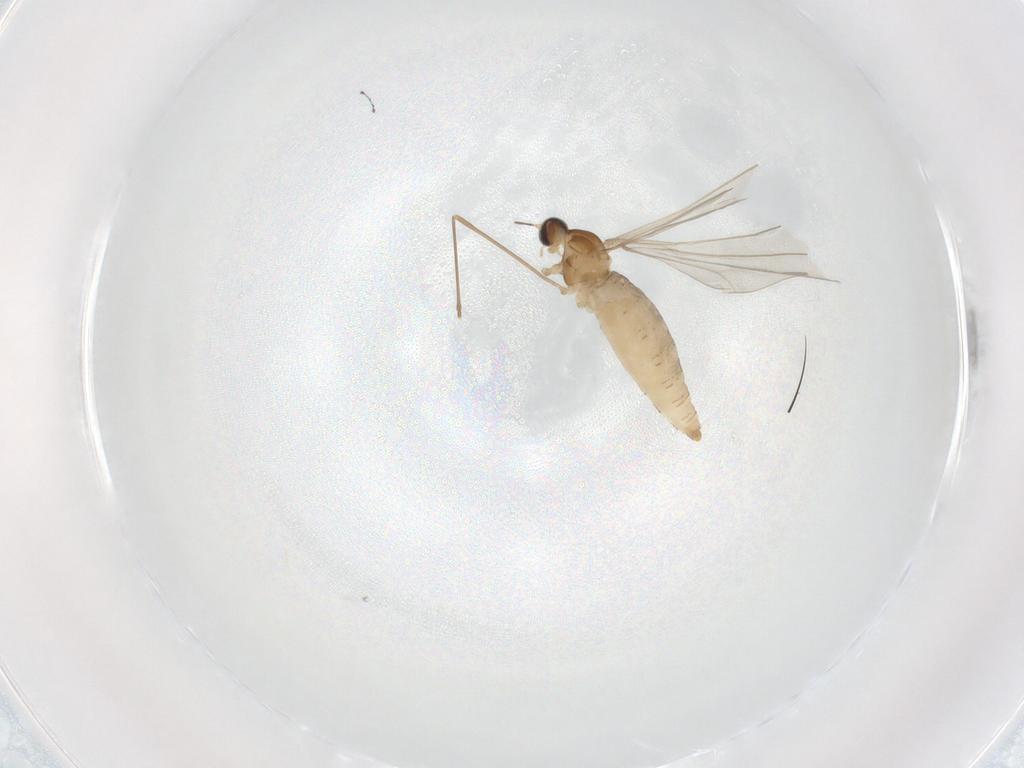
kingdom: Animalia
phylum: Arthropoda
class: Insecta
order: Diptera
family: Cecidomyiidae
